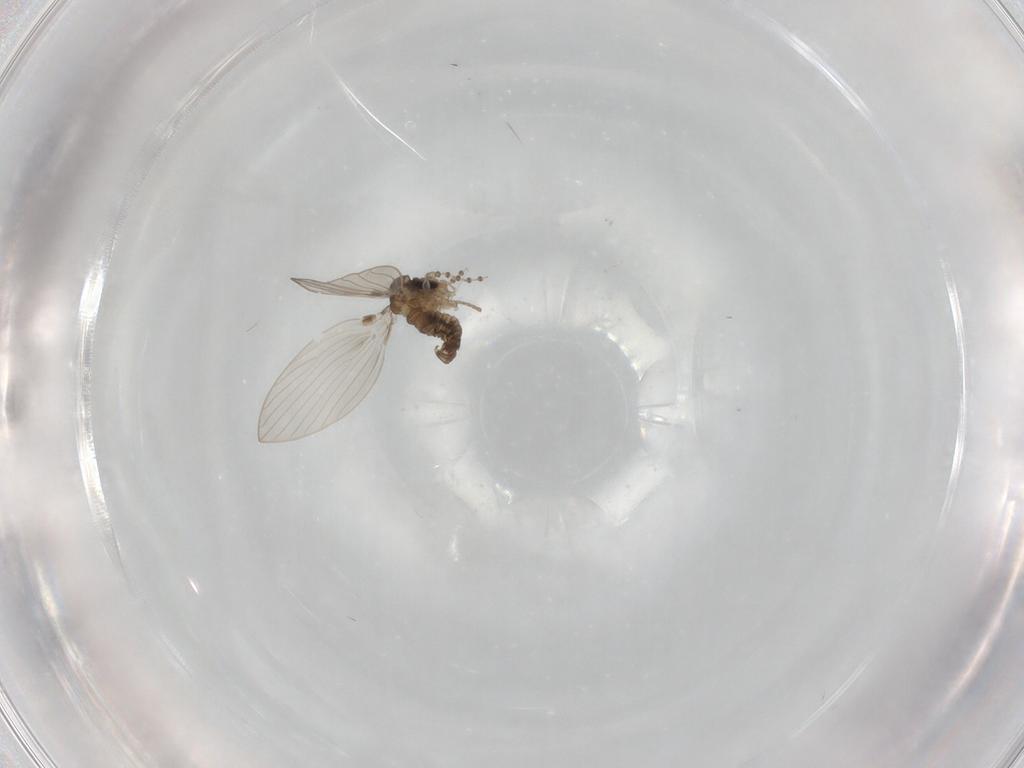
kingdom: Animalia
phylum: Arthropoda
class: Insecta
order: Diptera
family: Psychodidae
